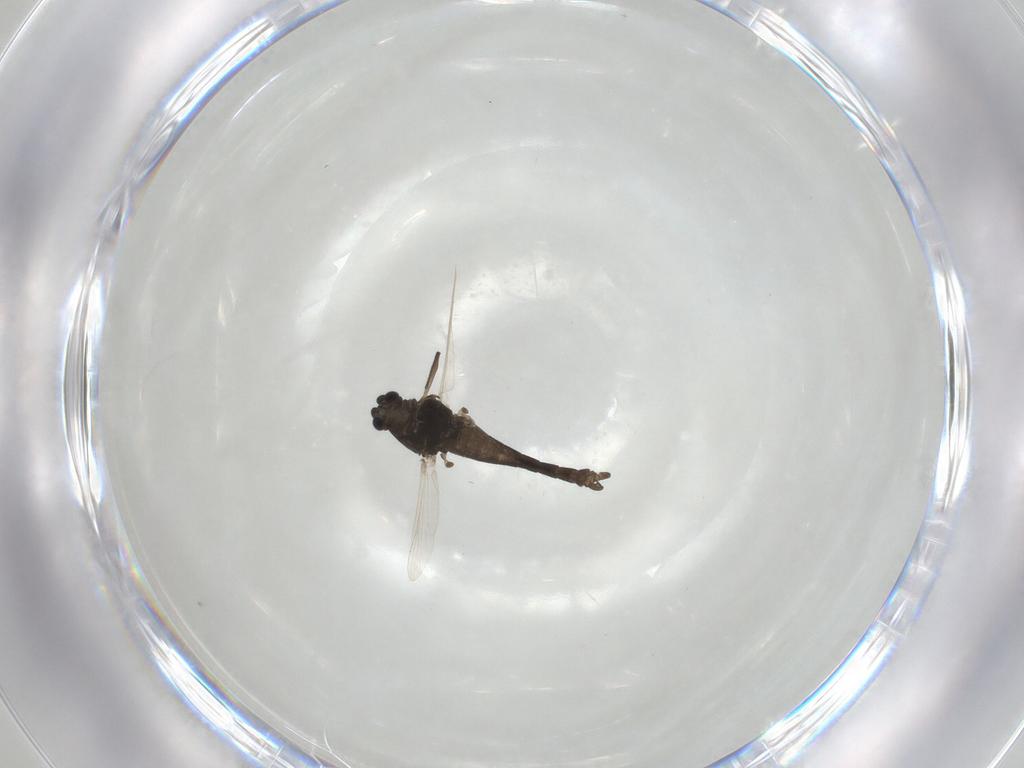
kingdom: Animalia
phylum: Arthropoda
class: Insecta
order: Diptera
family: Chironomidae
